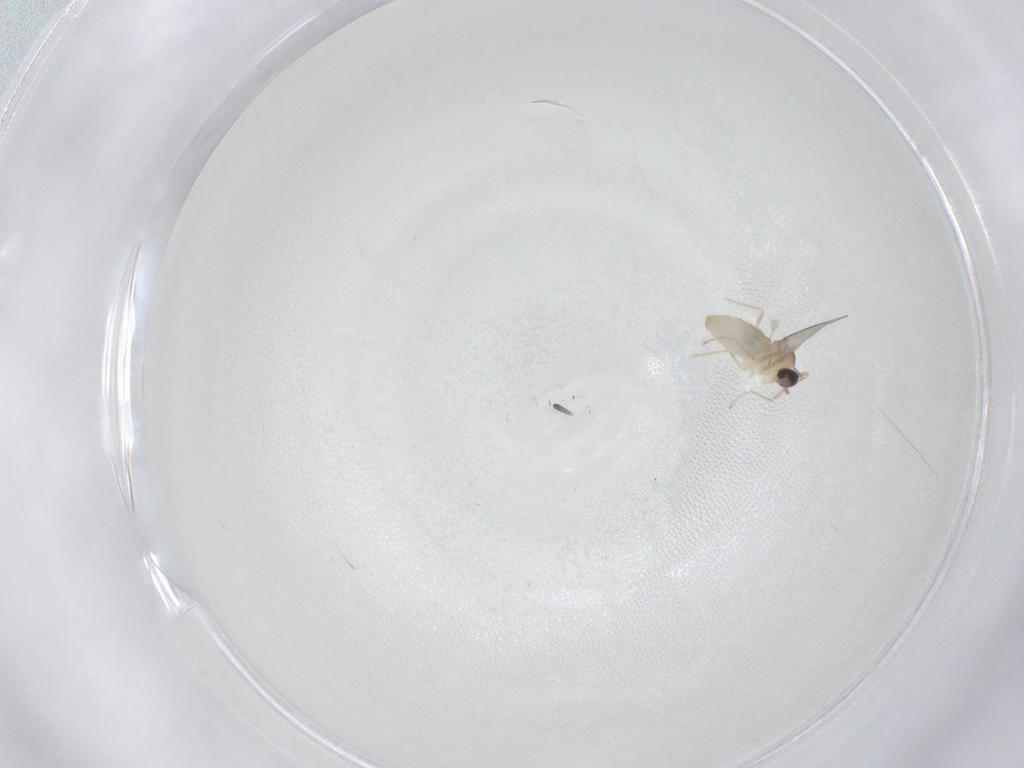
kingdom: Animalia
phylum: Arthropoda
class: Insecta
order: Diptera
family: Cecidomyiidae
